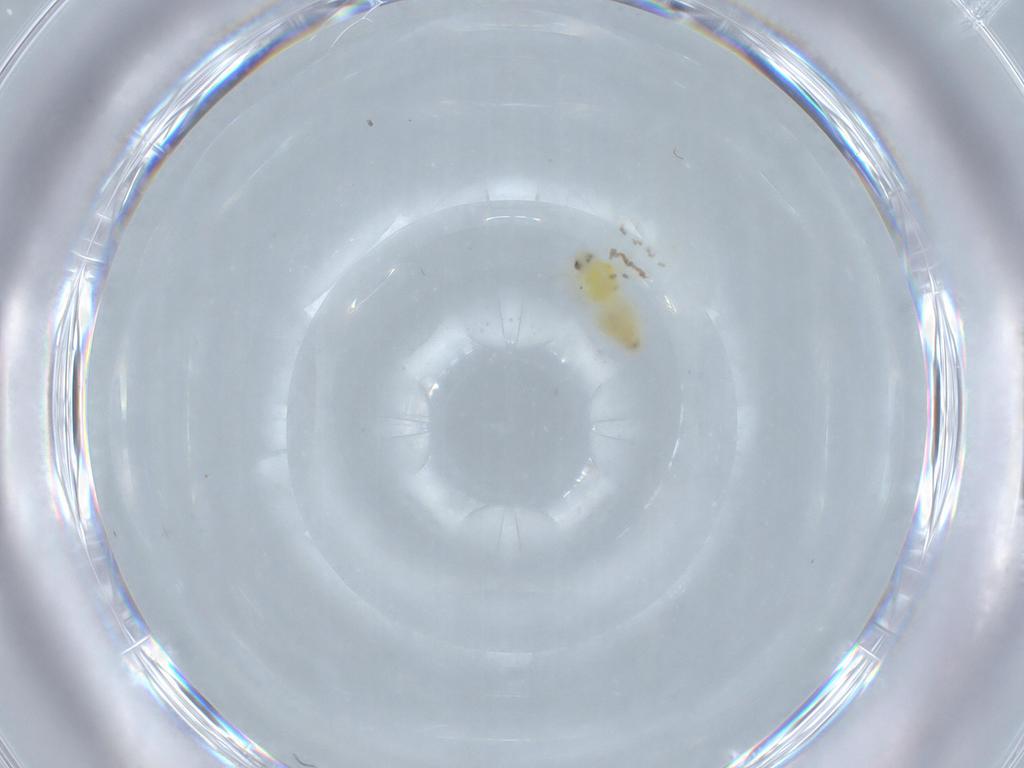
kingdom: Animalia
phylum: Arthropoda
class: Insecta
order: Hemiptera
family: Aleyrodidae
